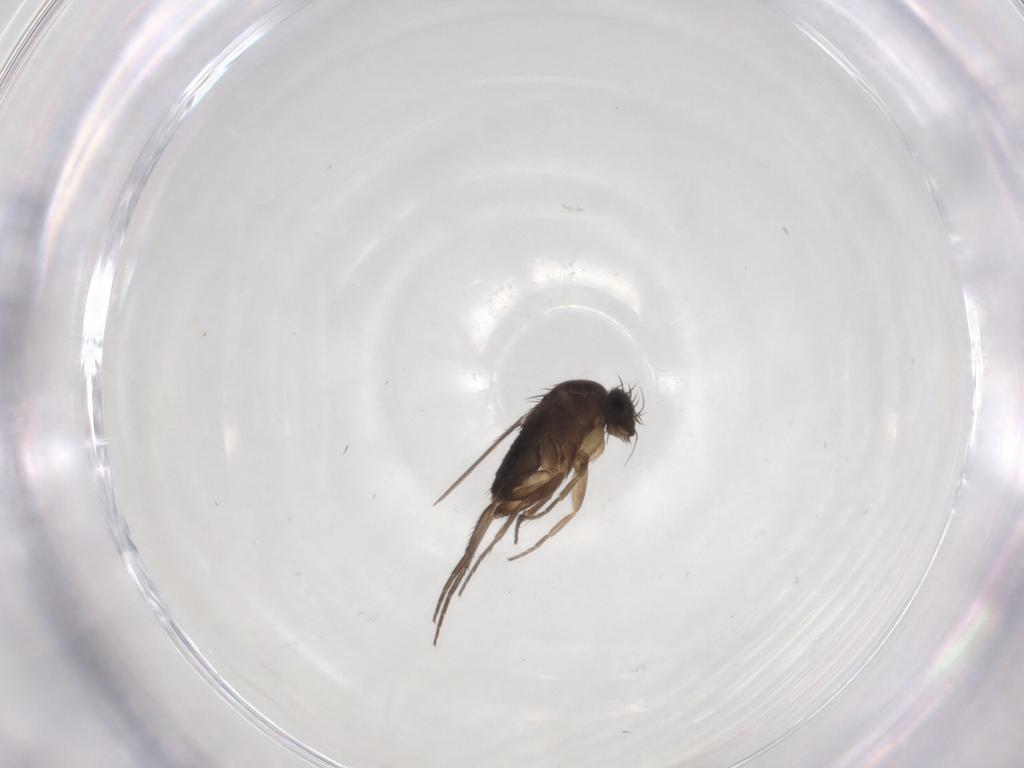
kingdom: Animalia
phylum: Arthropoda
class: Insecta
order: Diptera
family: Phoridae
